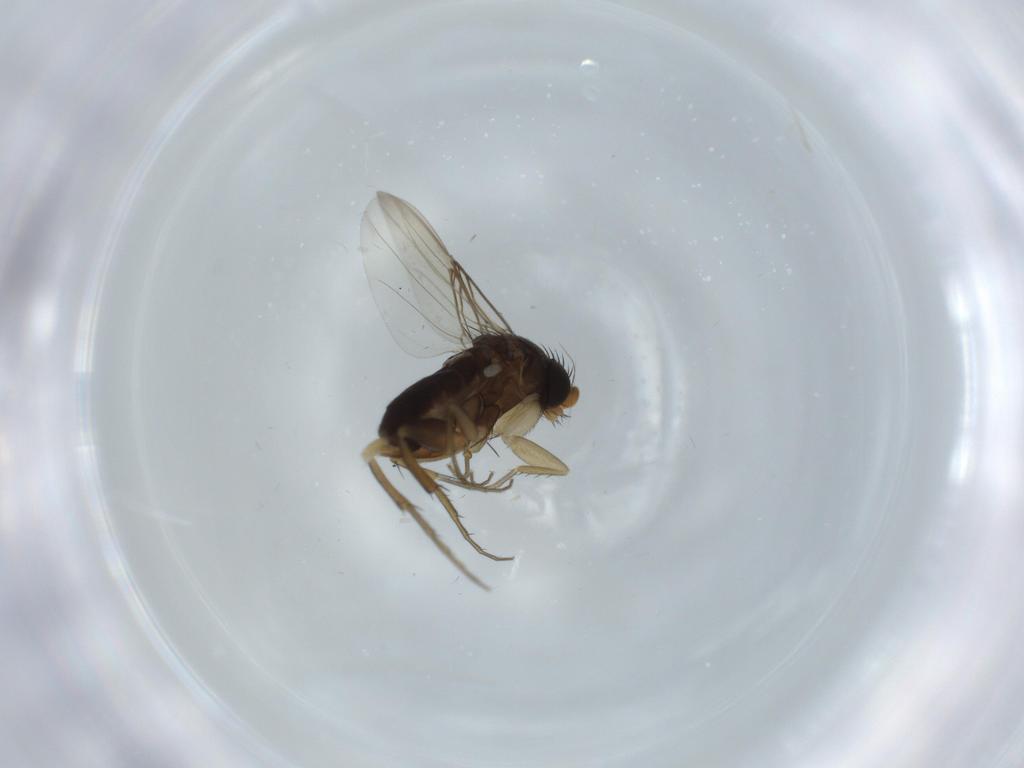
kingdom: Animalia
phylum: Arthropoda
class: Insecta
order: Diptera
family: Phoridae
